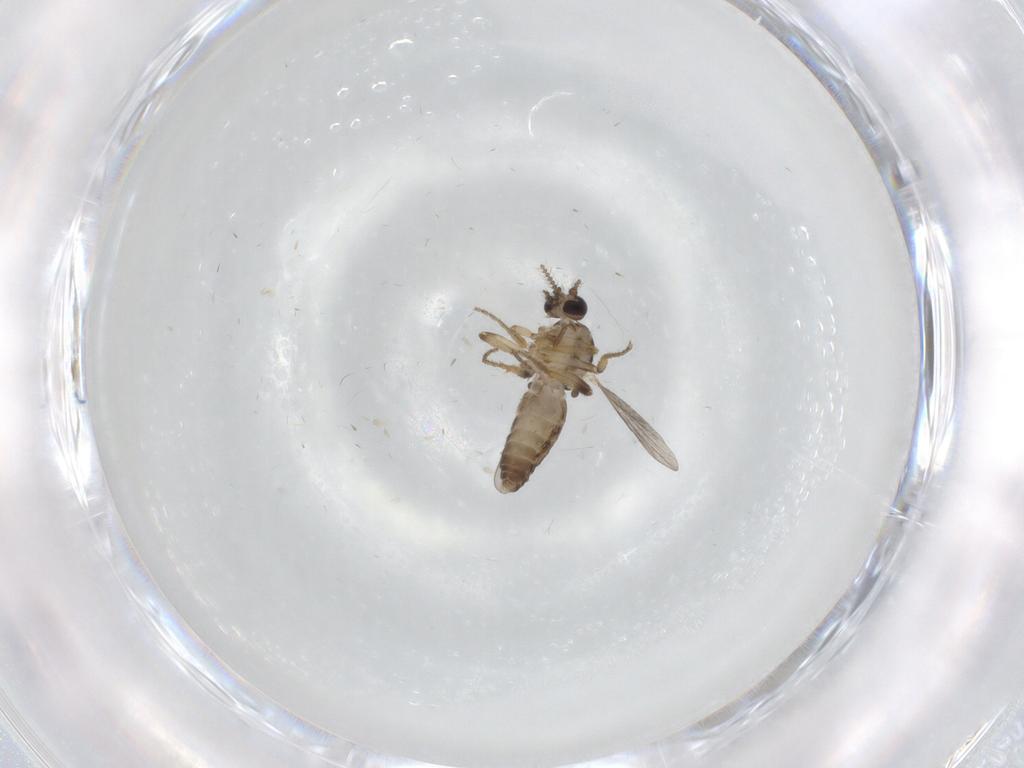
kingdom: Animalia
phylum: Arthropoda
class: Insecta
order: Diptera
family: Ceratopogonidae
